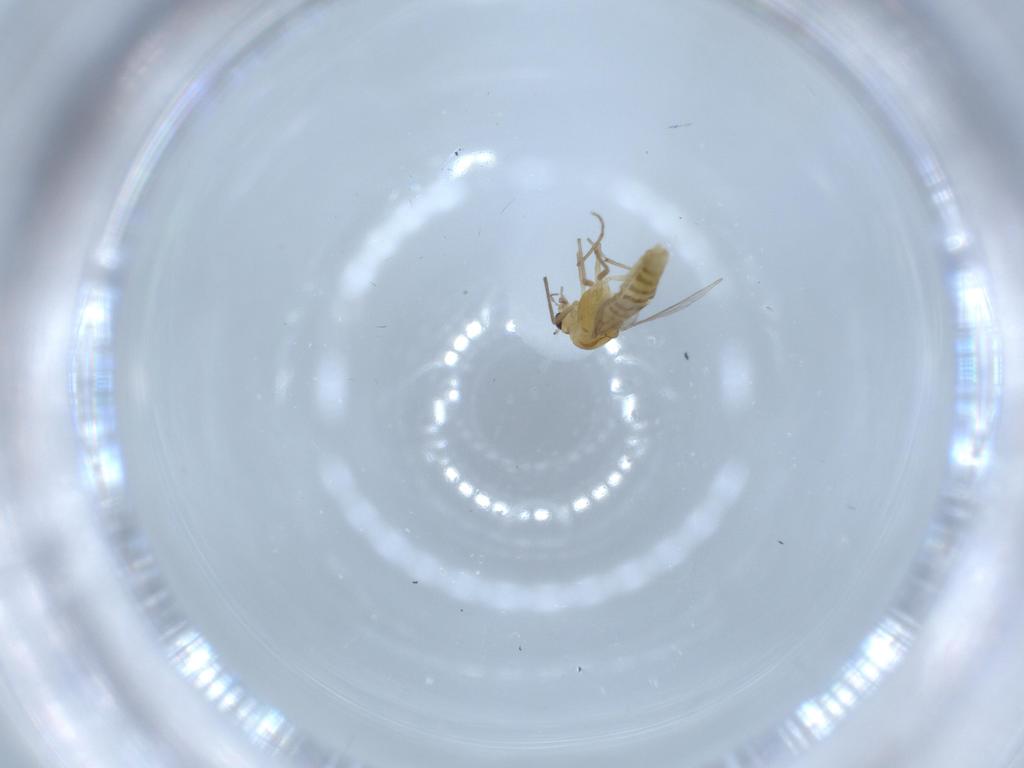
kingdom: Animalia
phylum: Arthropoda
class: Insecta
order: Diptera
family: Chironomidae
